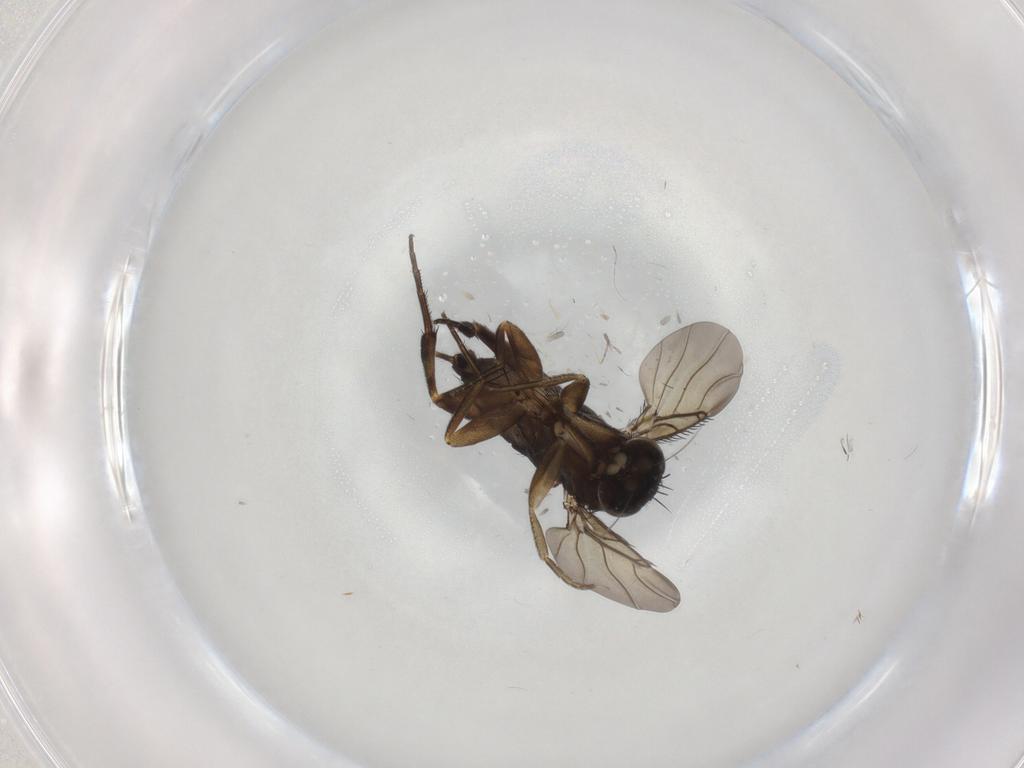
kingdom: Animalia
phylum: Arthropoda
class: Insecta
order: Diptera
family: Phoridae
